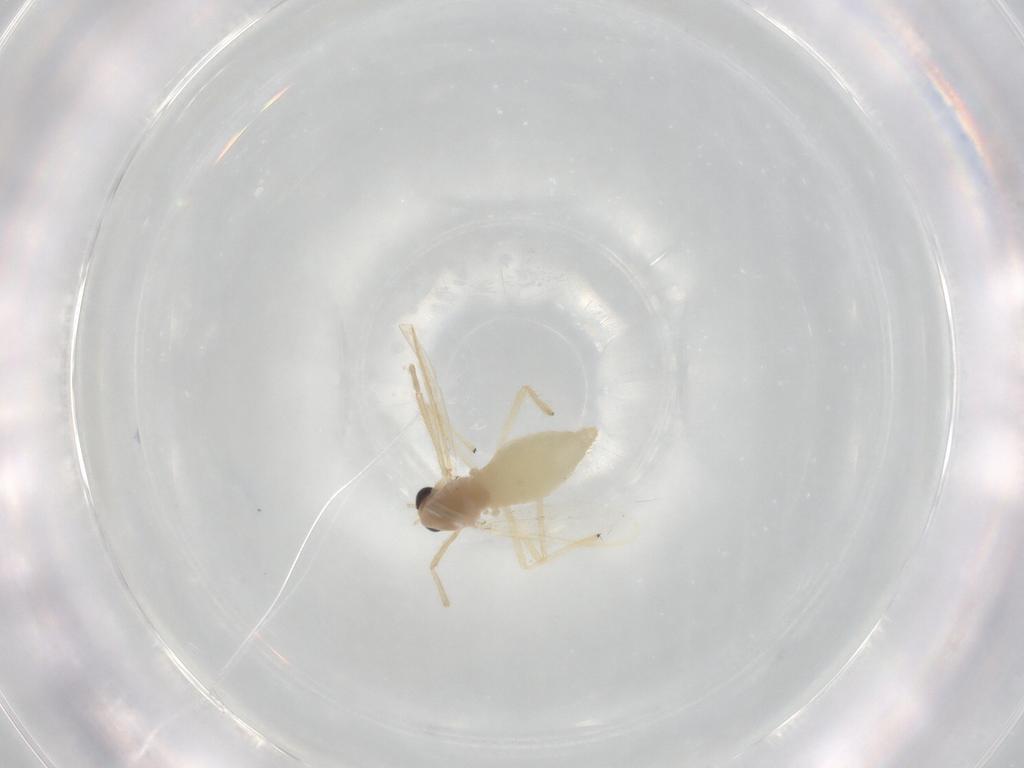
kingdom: Animalia
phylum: Arthropoda
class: Insecta
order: Diptera
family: Chironomidae
